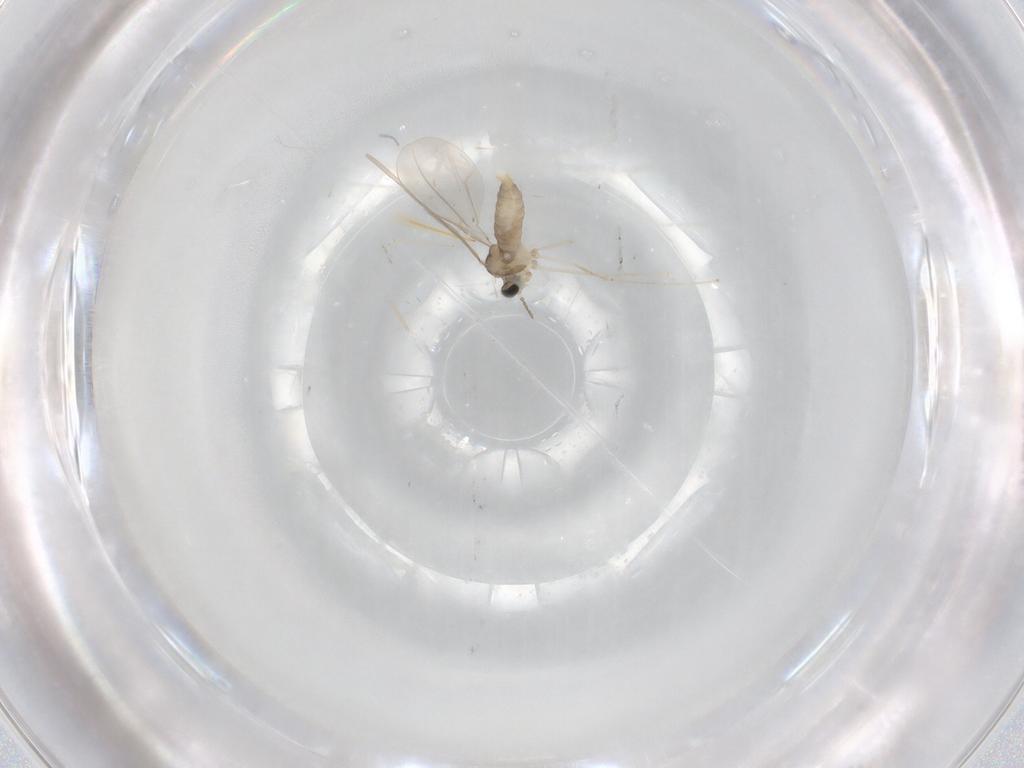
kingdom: Animalia
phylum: Arthropoda
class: Insecta
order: Diptera
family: Cecidomyiidae
